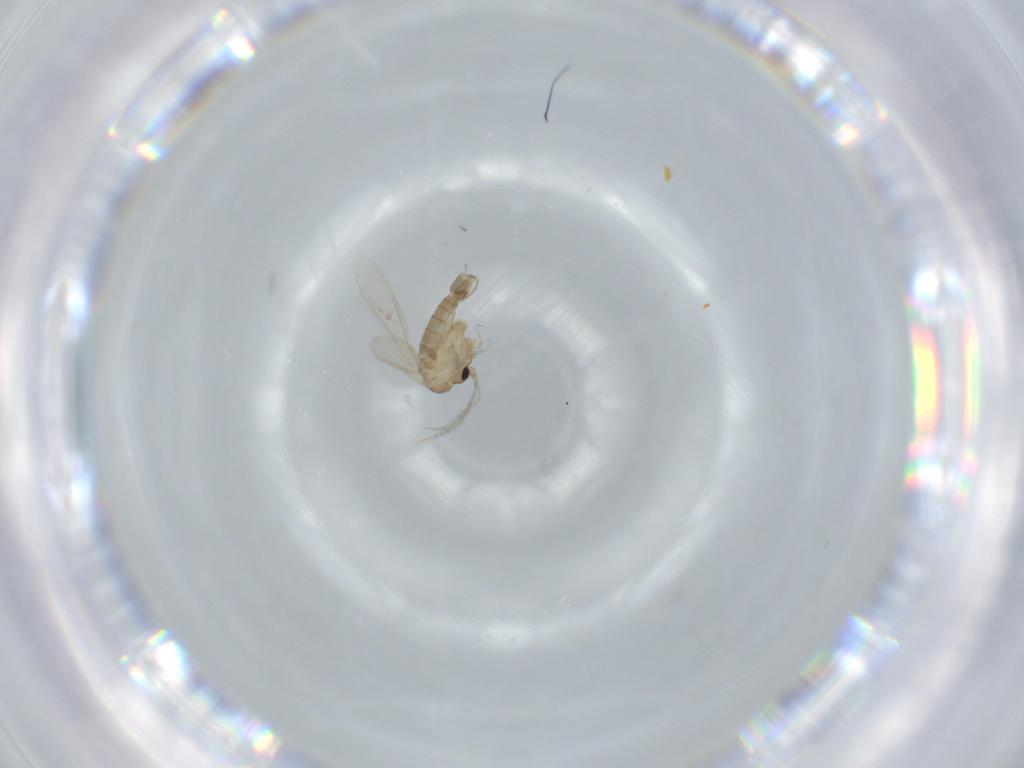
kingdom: Animalia
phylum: Arthropoda
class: Insecta
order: Diptera
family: Psychodidae
